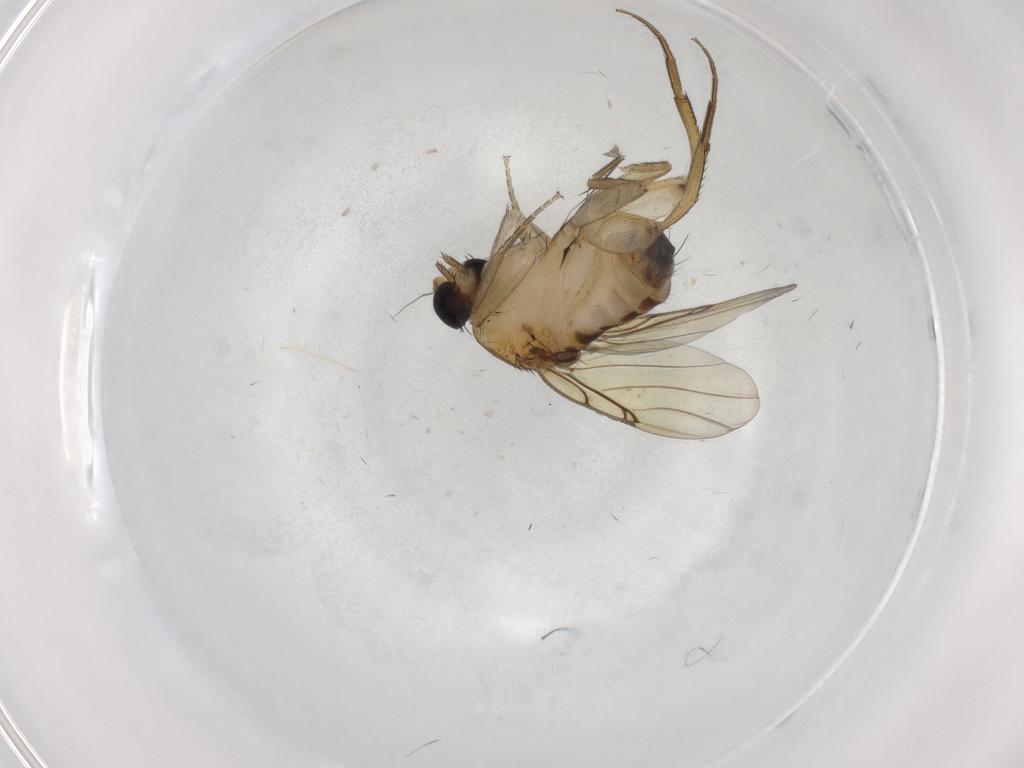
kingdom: Animalia
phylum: Arthropoda
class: Insecta
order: Diptera
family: Phoridae
